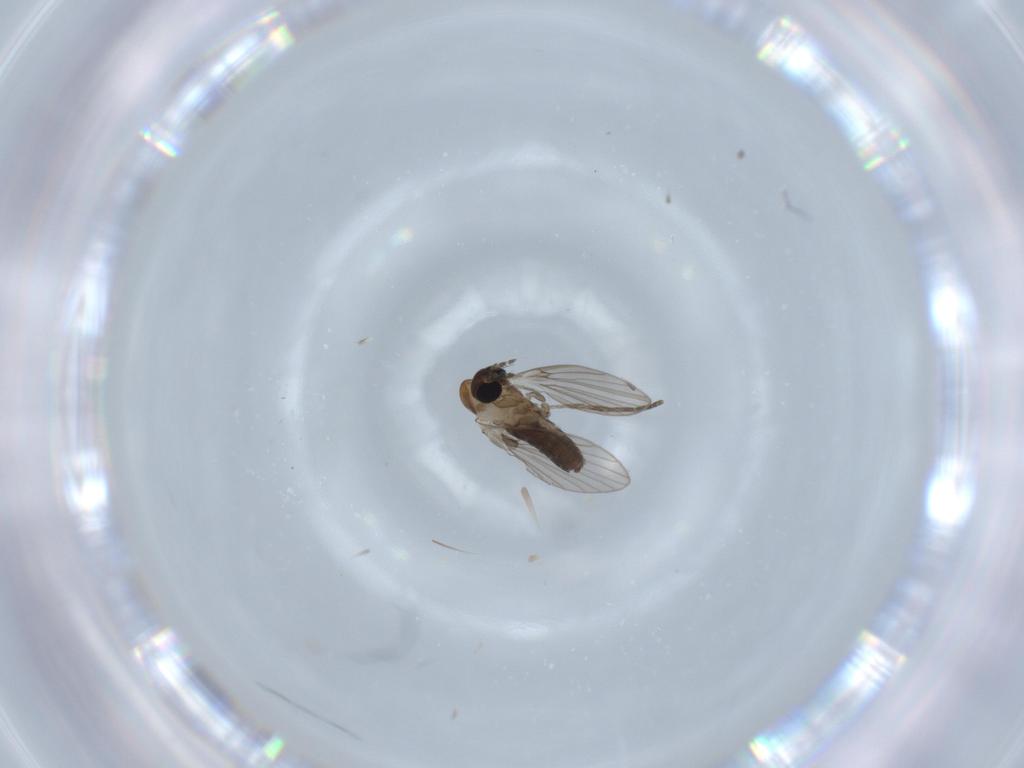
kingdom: Animalia
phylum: Arthropoda
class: Insecta
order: Diptera
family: Psychodidae
